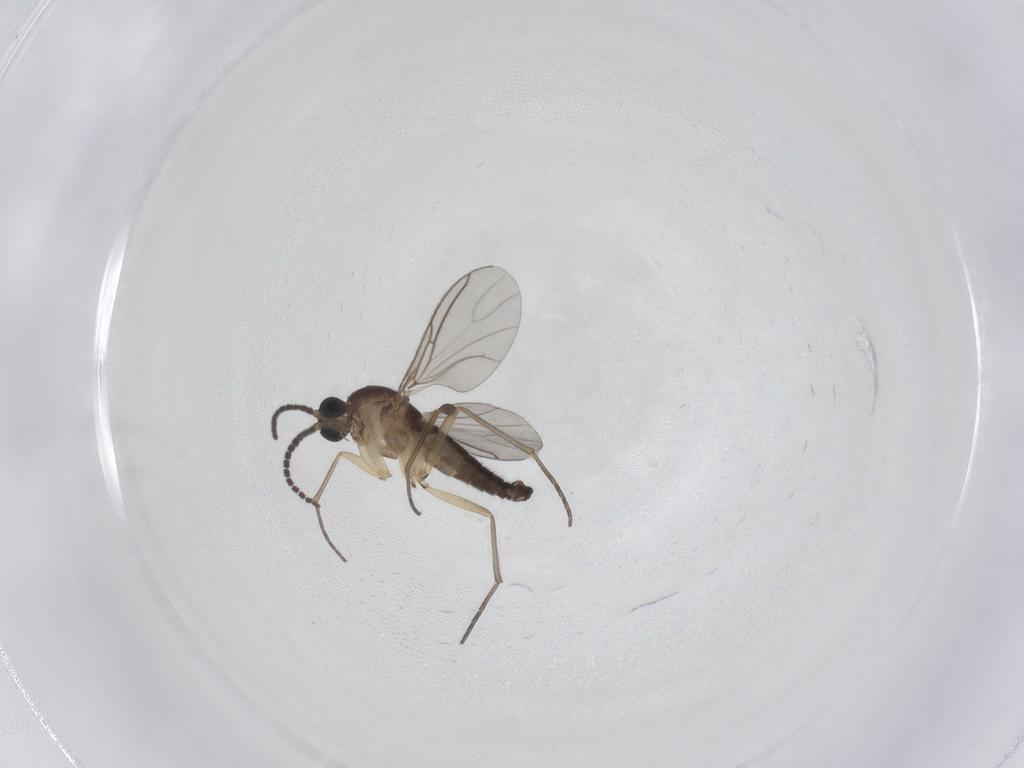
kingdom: Animalia
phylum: Arthropoda
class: Insecta
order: Diptera
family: Sciaridae
